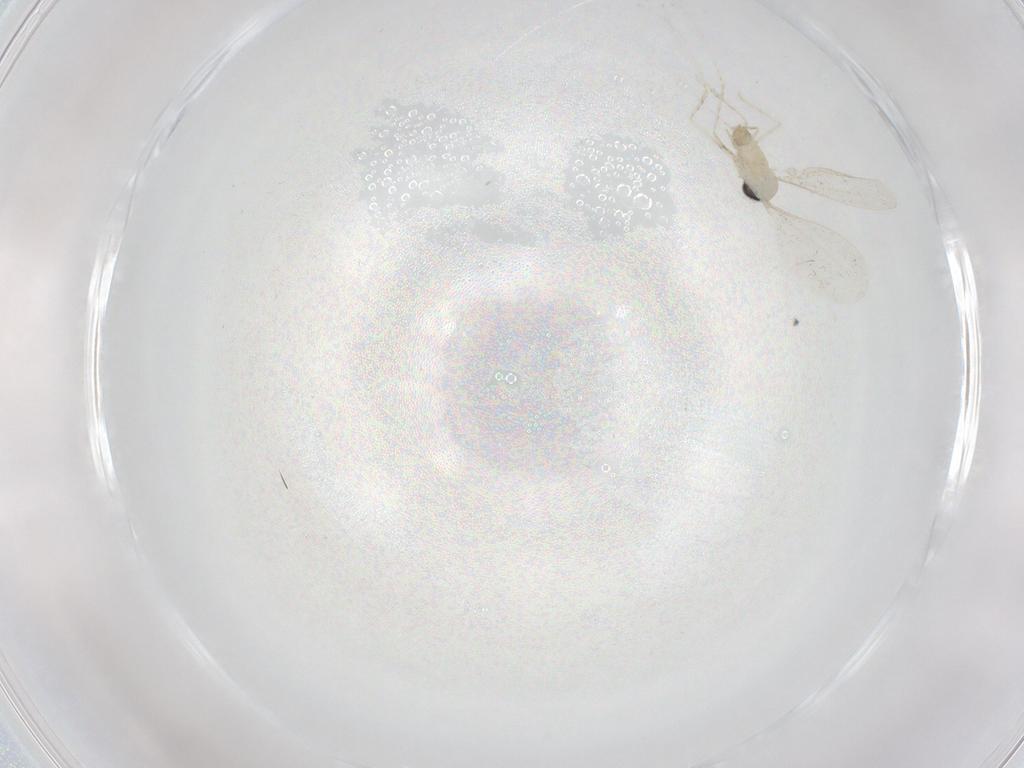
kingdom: Animalia
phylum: Arthropoda
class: Insecta
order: Diptera
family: Cecidomyiidae
